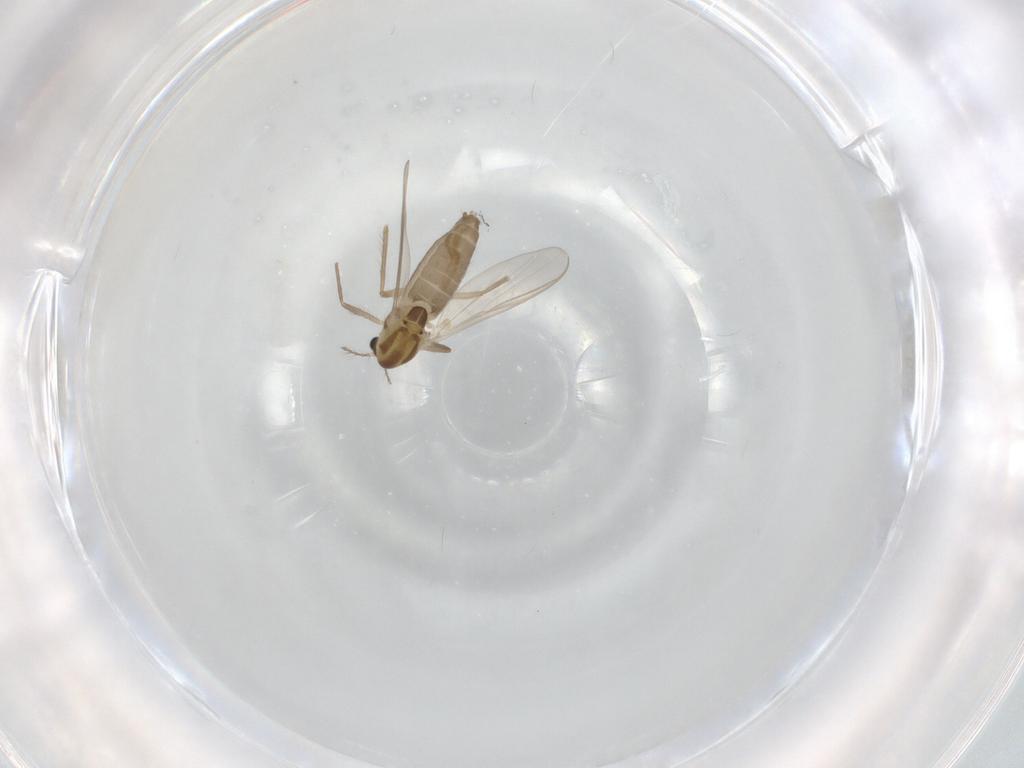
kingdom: Animalia
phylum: Arthropoda
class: Insecta
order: Diptera
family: Chironomidae
